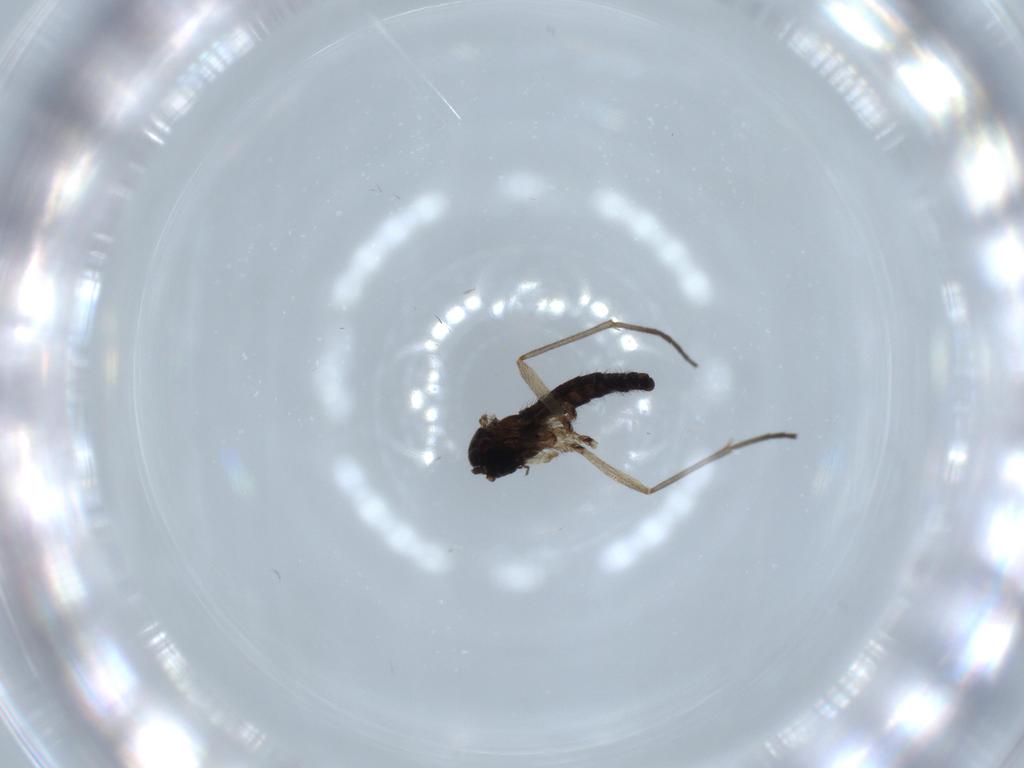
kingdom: Animalia
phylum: Arthropoda
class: Insecta
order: Diptera
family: Sciaridae
